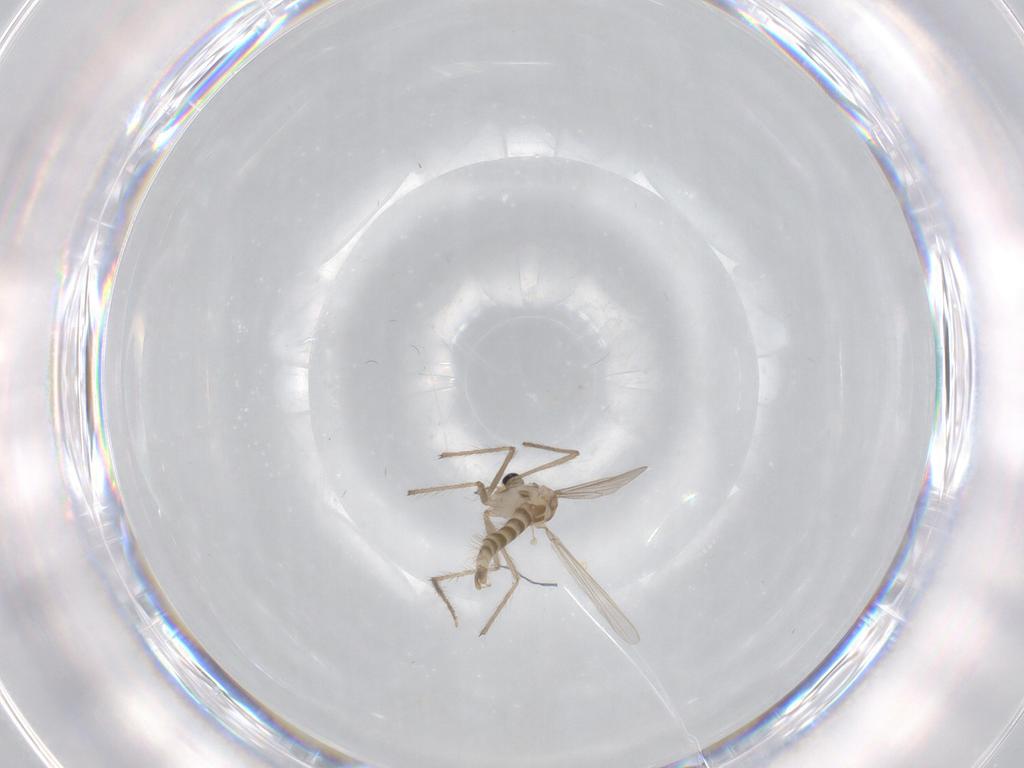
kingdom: Animalia
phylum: Arthropoda
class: Insecta
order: Diptera
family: Chironomidae
